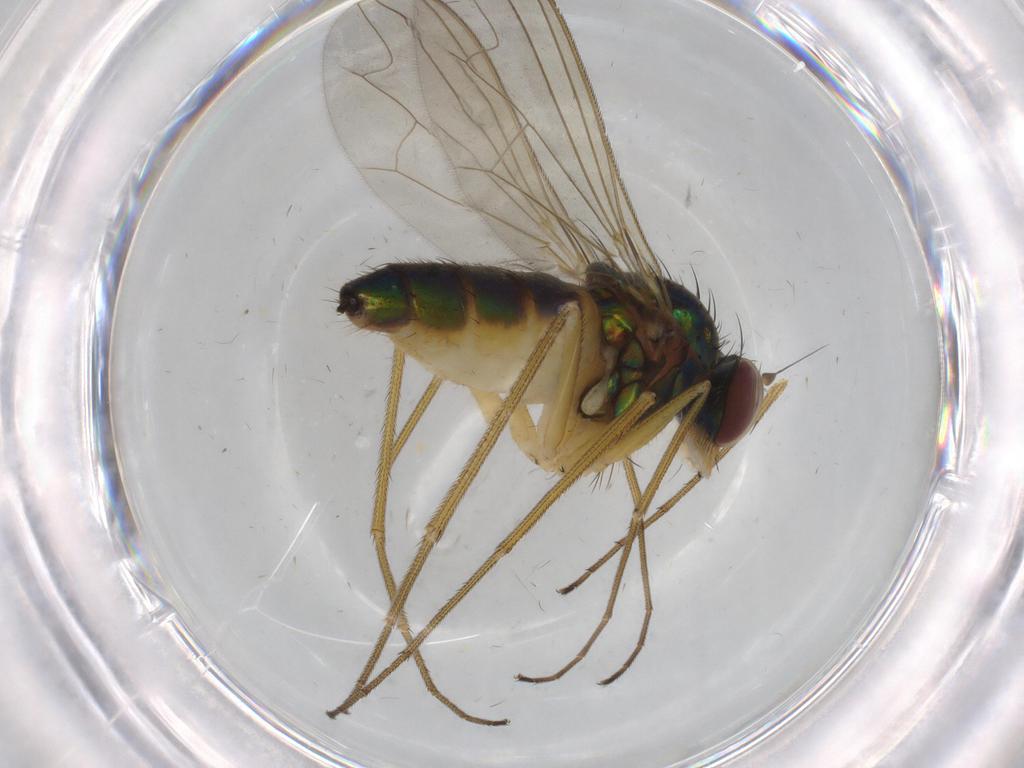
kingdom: Animalia
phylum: Arthropoda
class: Insecta
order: Diptera
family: Dolichopodidae
